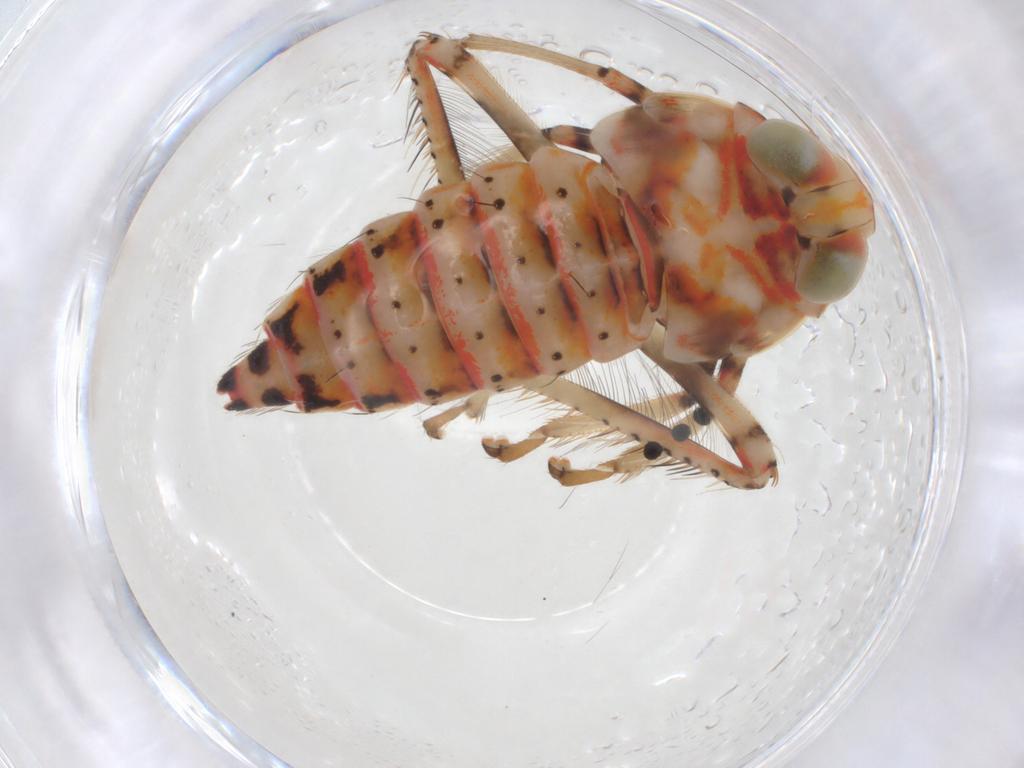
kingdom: Animalia
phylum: Arthropoda
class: Insecta
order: Hemiptera
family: Cicadellidae
